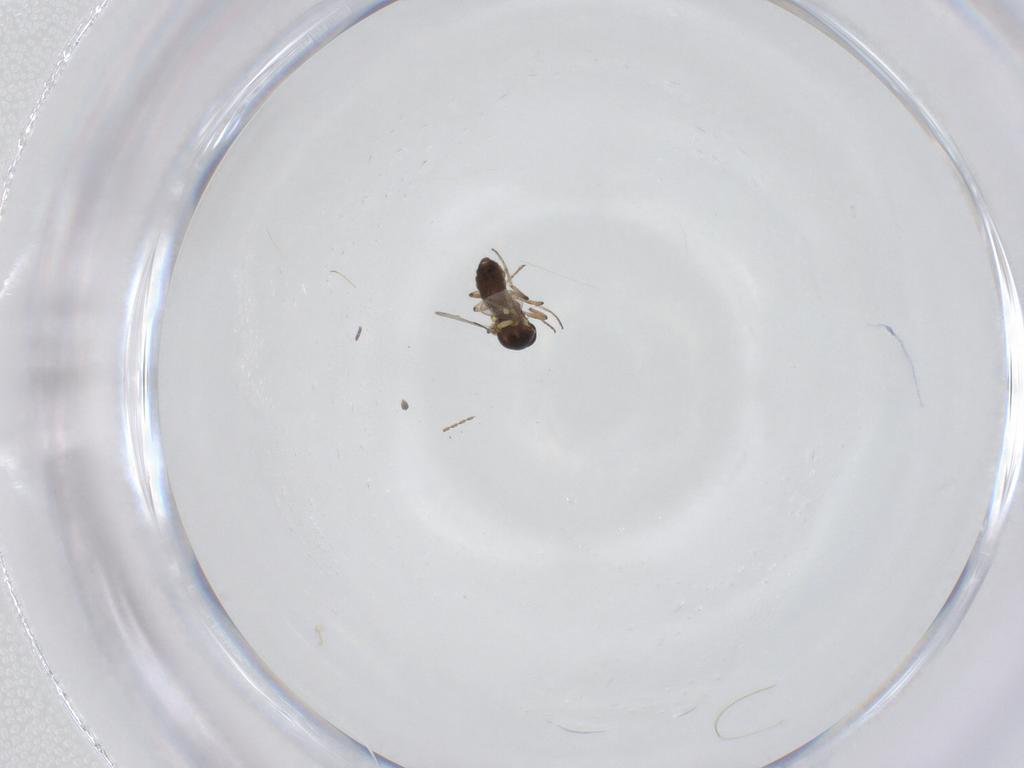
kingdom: Animalia
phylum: Arthropoda
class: Insecta
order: Diptera
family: Ceratopogonidae
